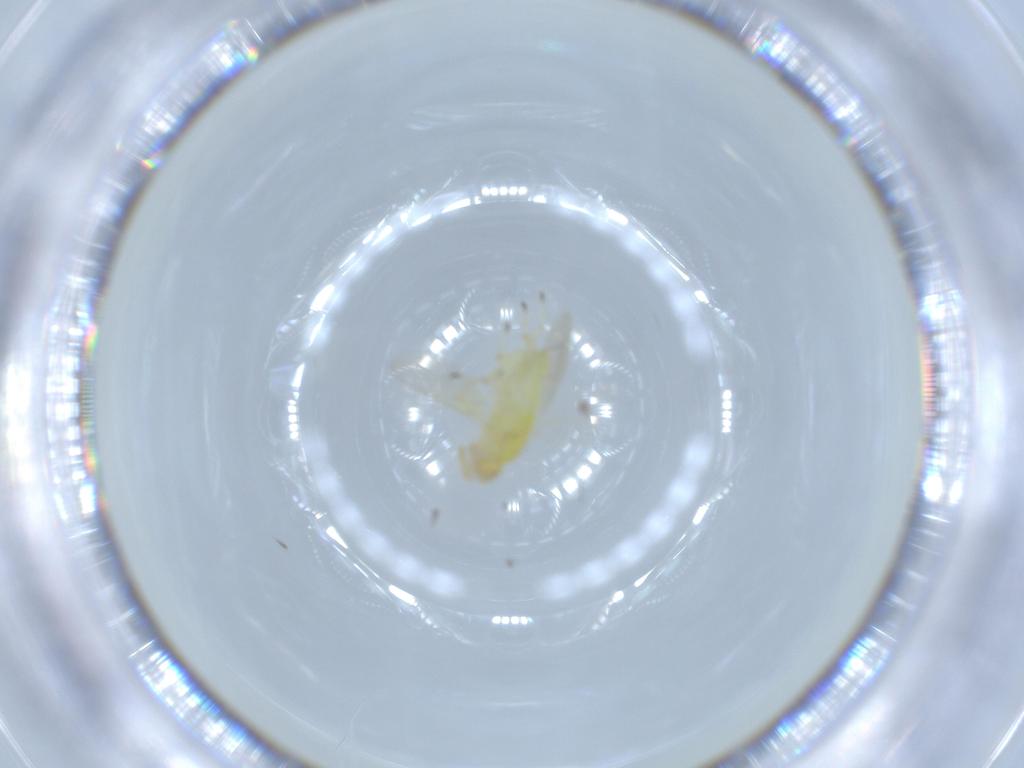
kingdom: Animalia
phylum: Arthropoda
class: Insecta
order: Hymenoptera
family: Aphelinidae
